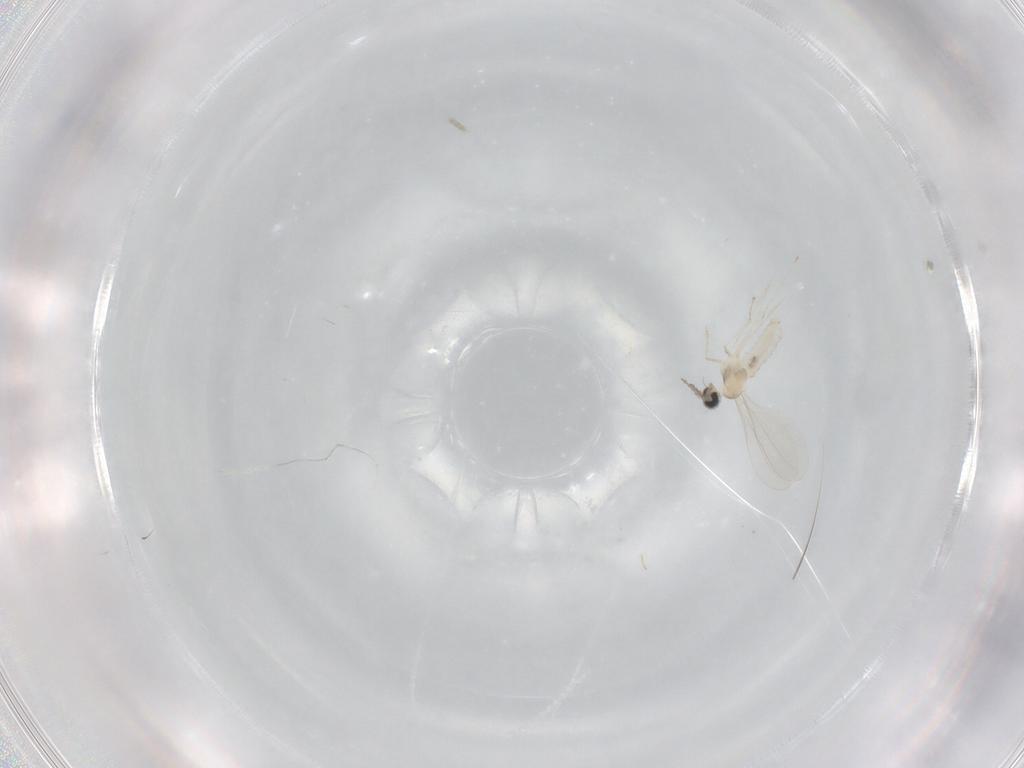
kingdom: Animalia
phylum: Arthropoda
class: Insecta
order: Diptera
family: Cecidomyiidae
